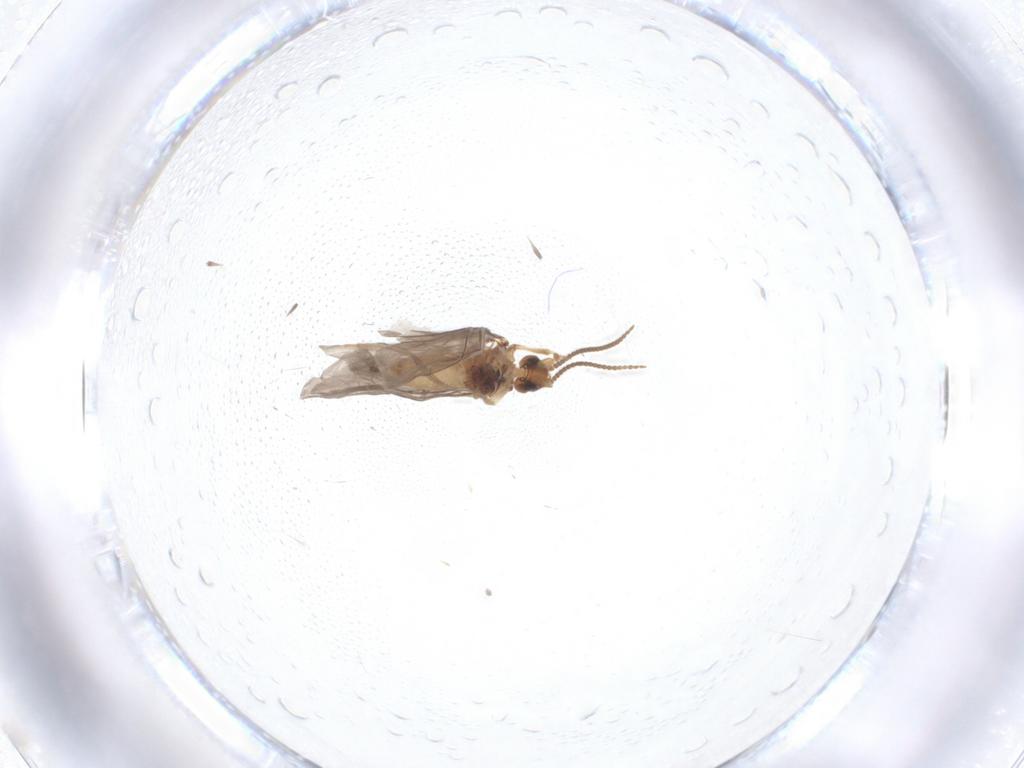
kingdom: Animalia
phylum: Arthropoda
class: Insecta
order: Neuroptera
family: Coniopterygidae
